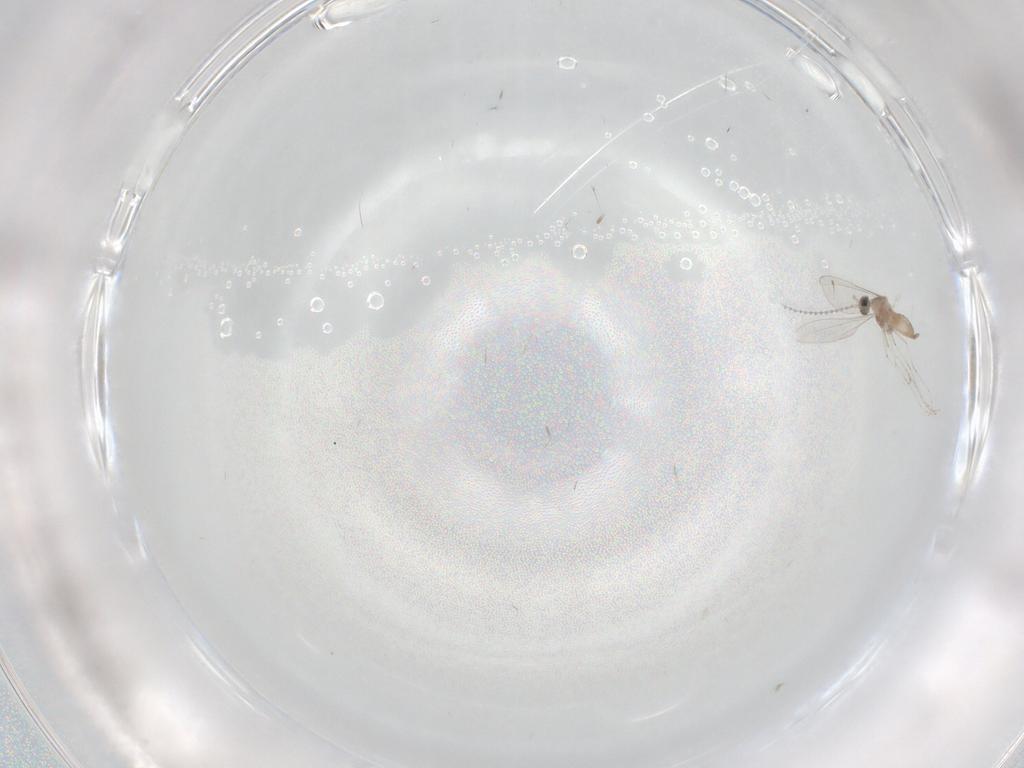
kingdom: Animalia
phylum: Arthropoda
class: Insecta
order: Diptera
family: Cecidomyiidae
